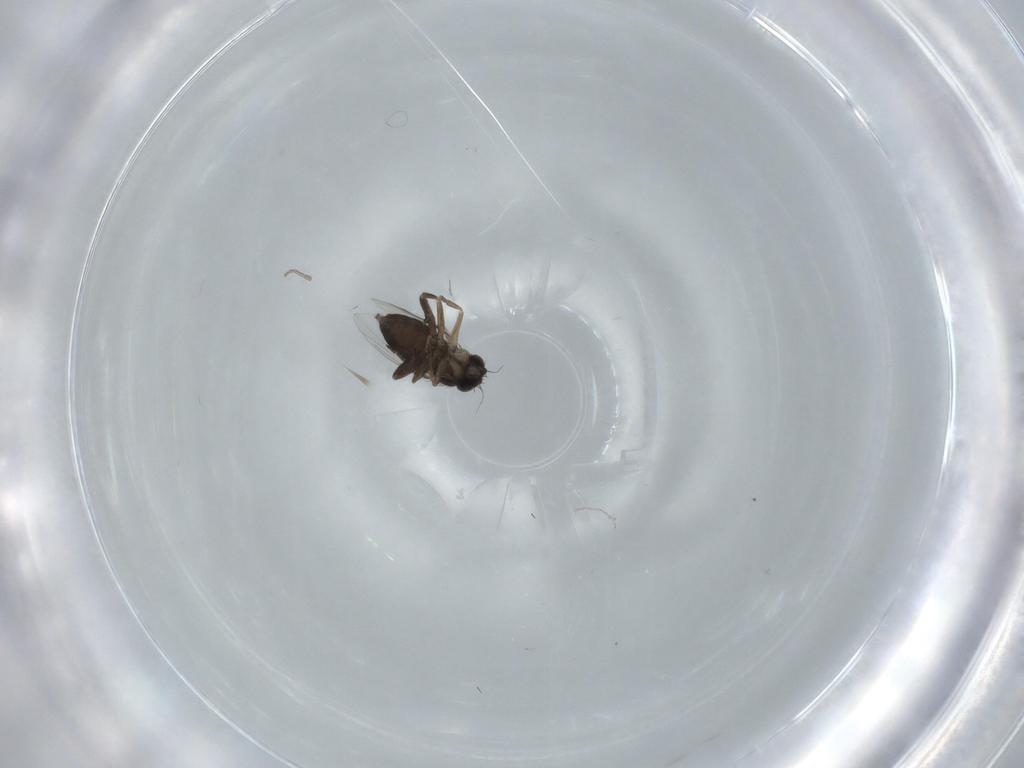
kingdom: Animalia
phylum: Arthropoda
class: Insecta
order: Diptera
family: Phoridae
